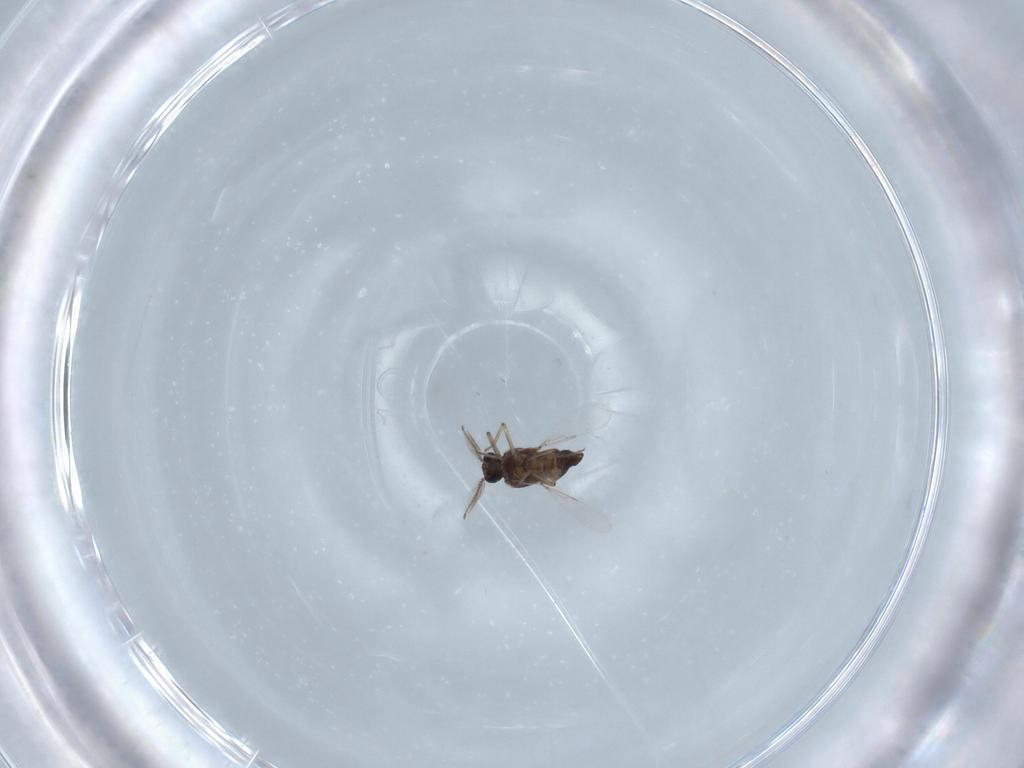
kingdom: Animalia
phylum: Arthropoda
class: Insecta
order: Diptera
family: Ceratopogonidae
